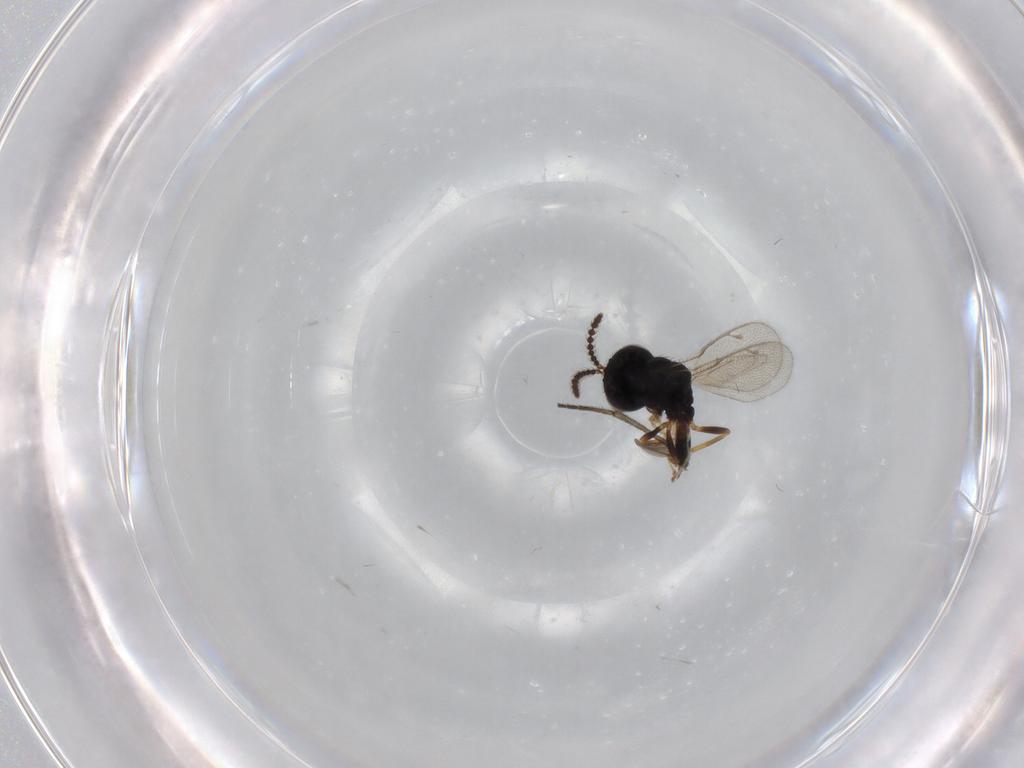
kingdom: Animalia
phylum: Arthropoda
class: Insecta
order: Hymenoptera
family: Pteromalidae
